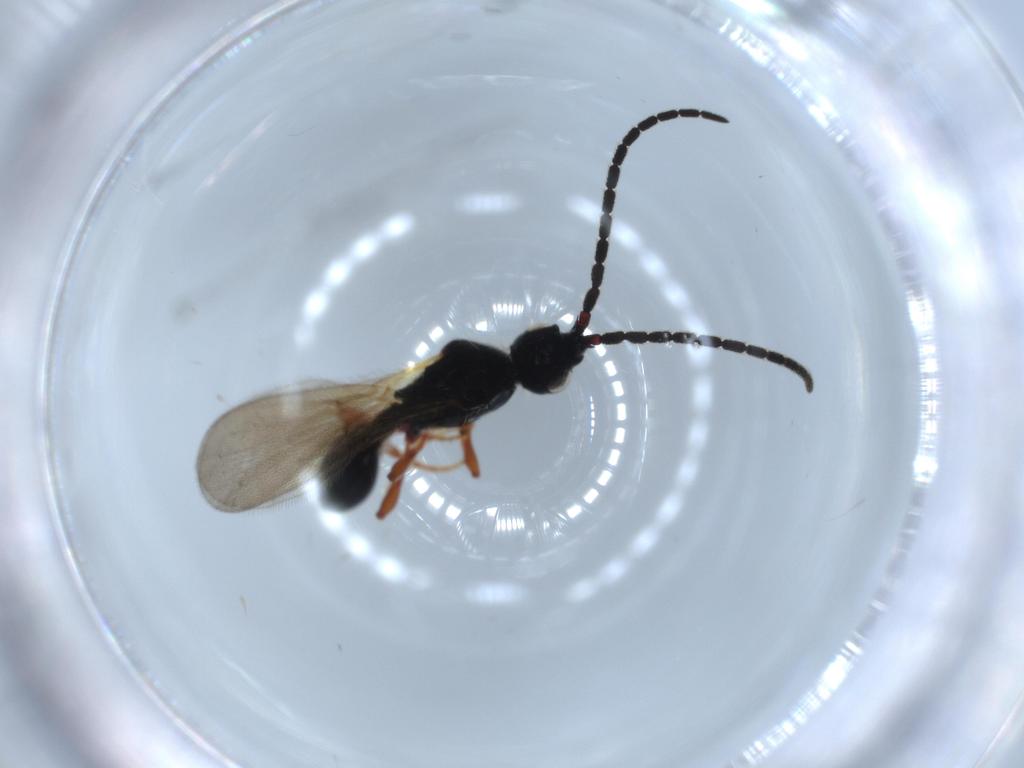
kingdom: Animalia
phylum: Arthropoda
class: Insecta
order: Hymenoptera
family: Diapriidae
